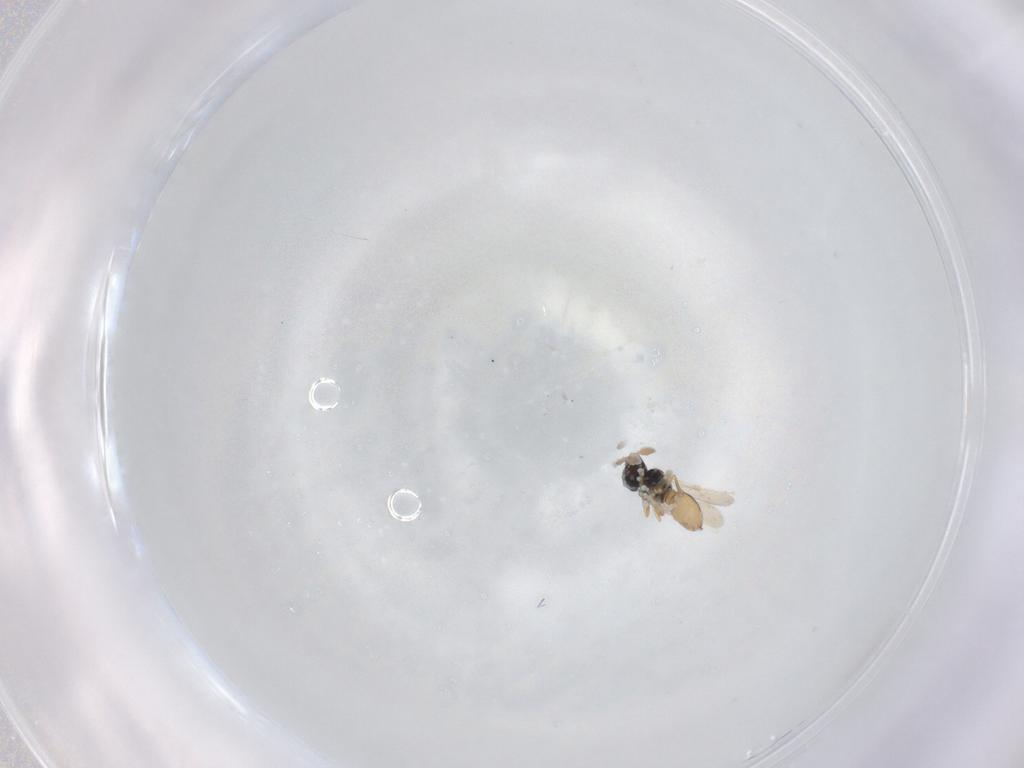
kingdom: Animalia
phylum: Arthropoda
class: Insecta
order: Hymenoptera
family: Scelionidae
